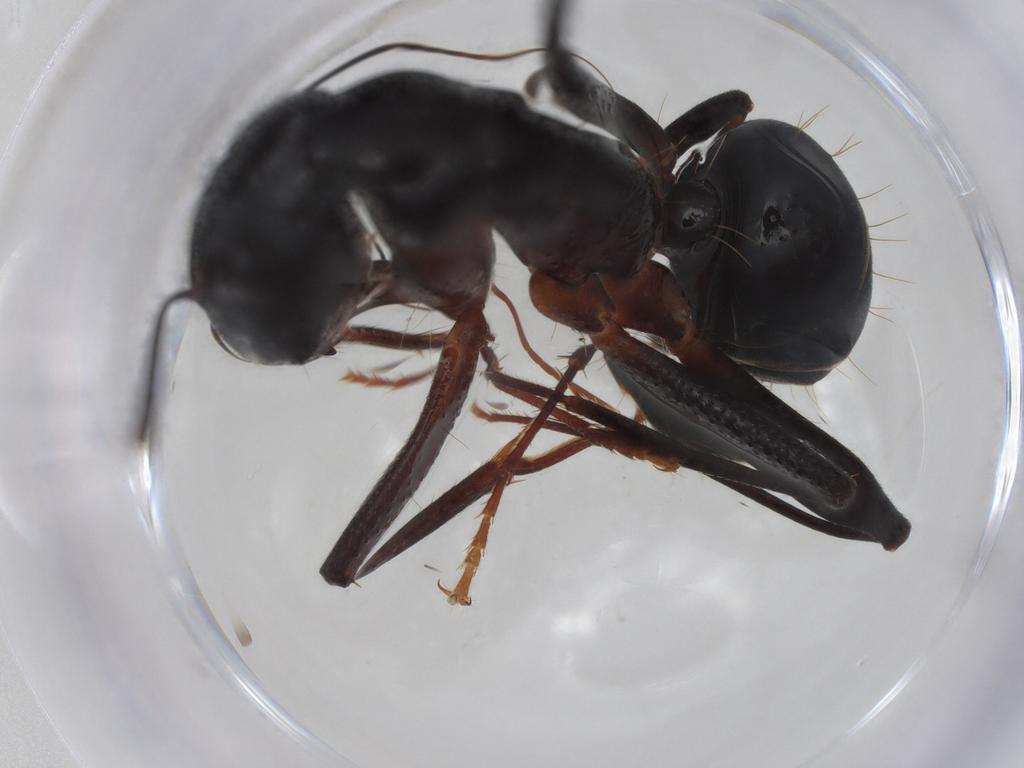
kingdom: Animalia
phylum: Arthropoda
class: Insecta
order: Hymenoptera
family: Formicidae
